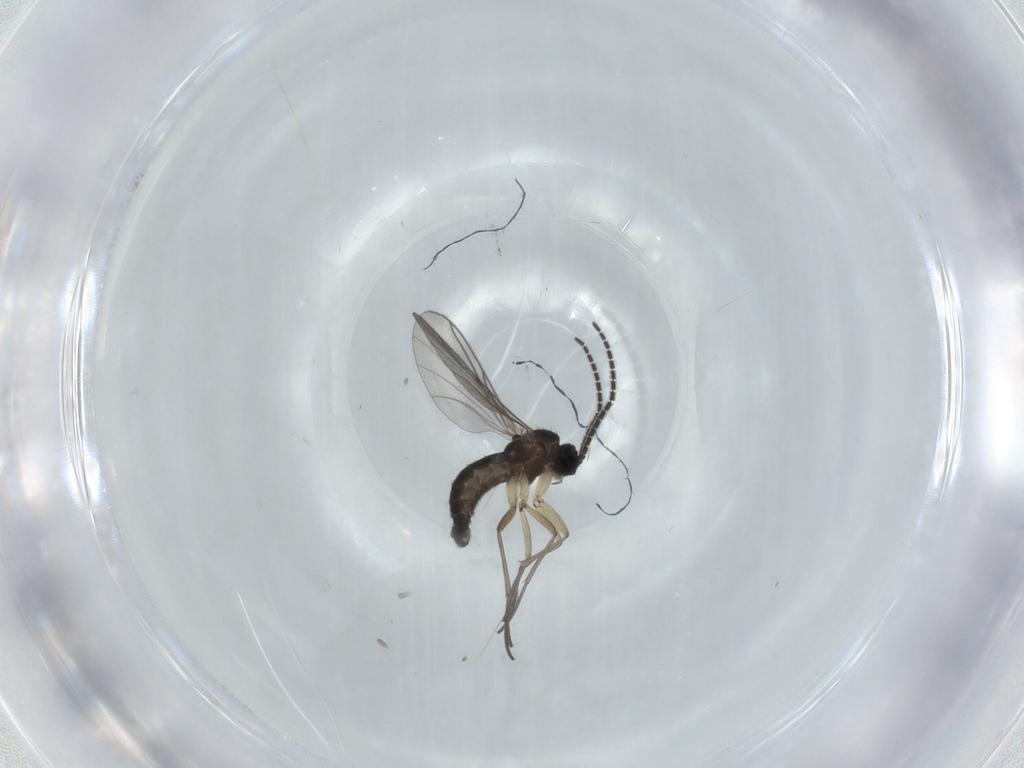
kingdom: Animalia
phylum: Arthropoda
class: Insecta
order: Diptera
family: Sciaridae
